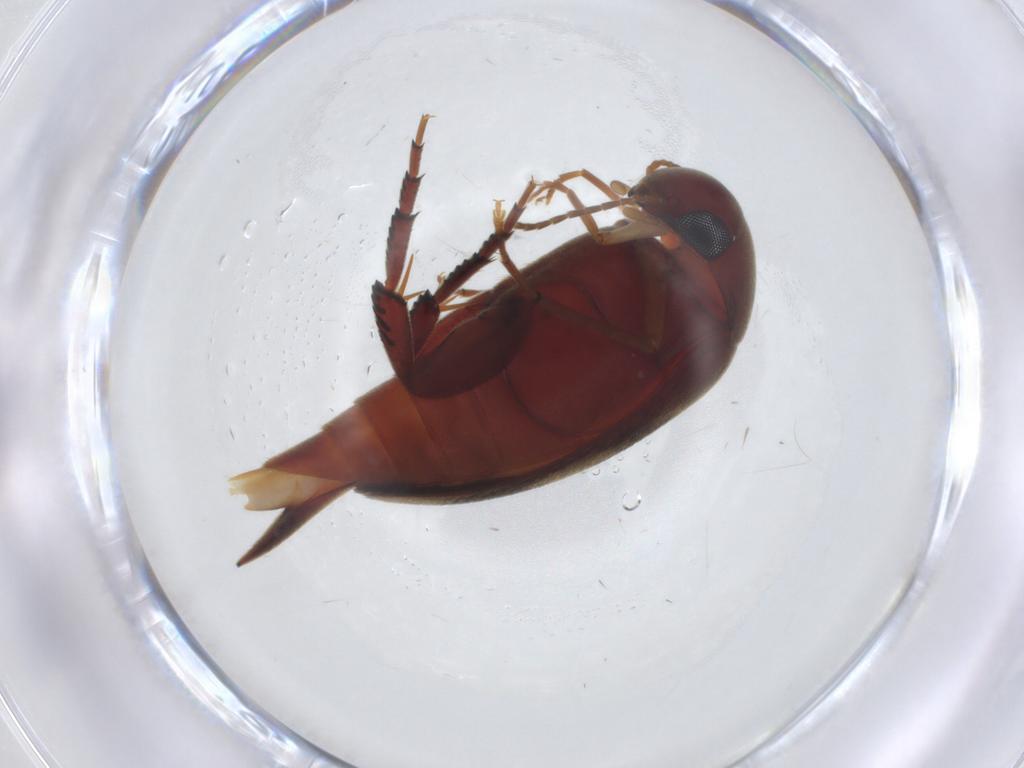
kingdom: Animalia
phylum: Arthropoda
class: Insecta
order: Coleoptera
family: Mordellidae
